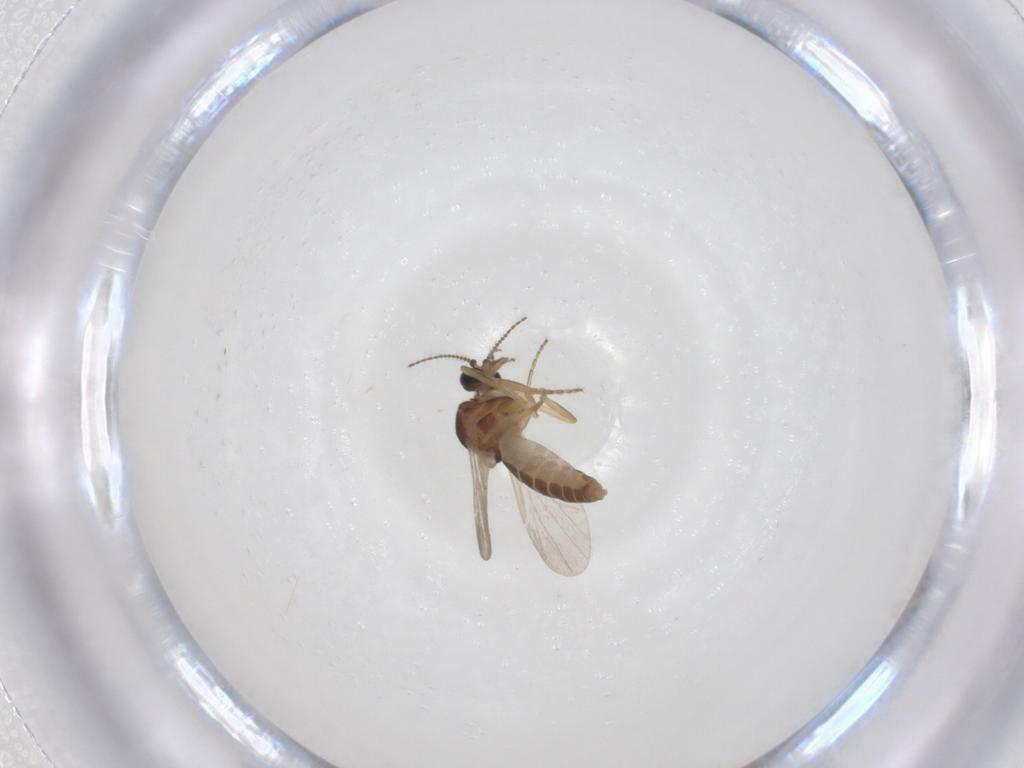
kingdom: Animalia
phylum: Arthropoda
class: Insecta
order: Diptera
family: Ceratopogonidae
